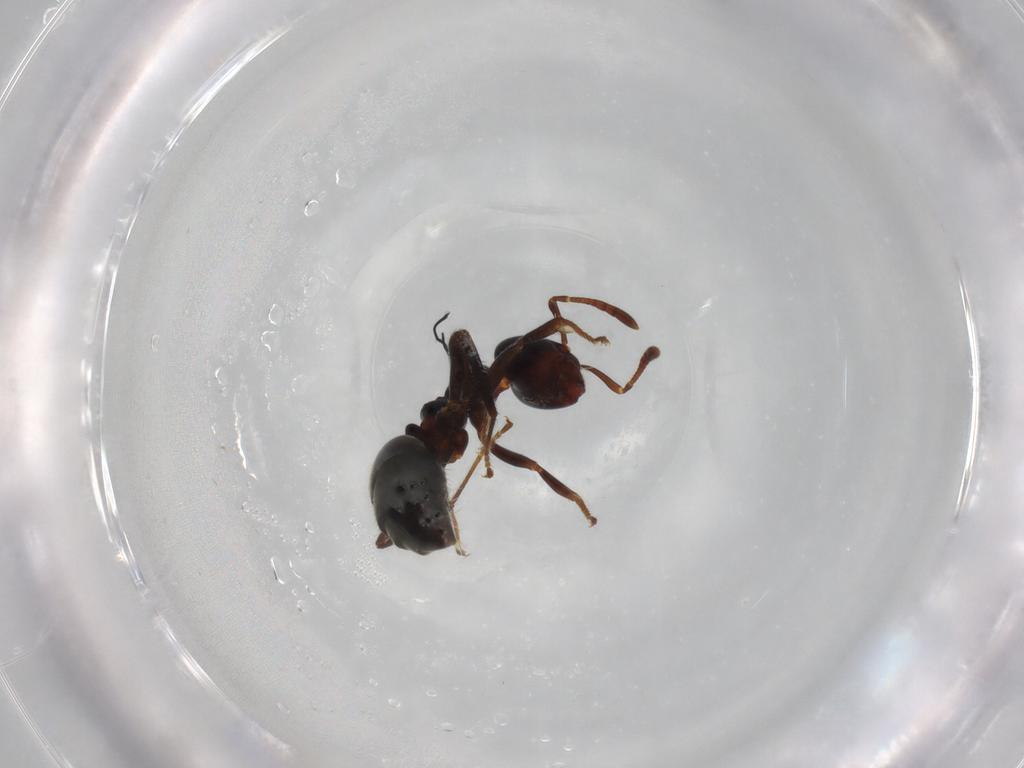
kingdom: Animalia
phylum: Arthropoda
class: Insecta
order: Hymenoptera
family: Formicidae
